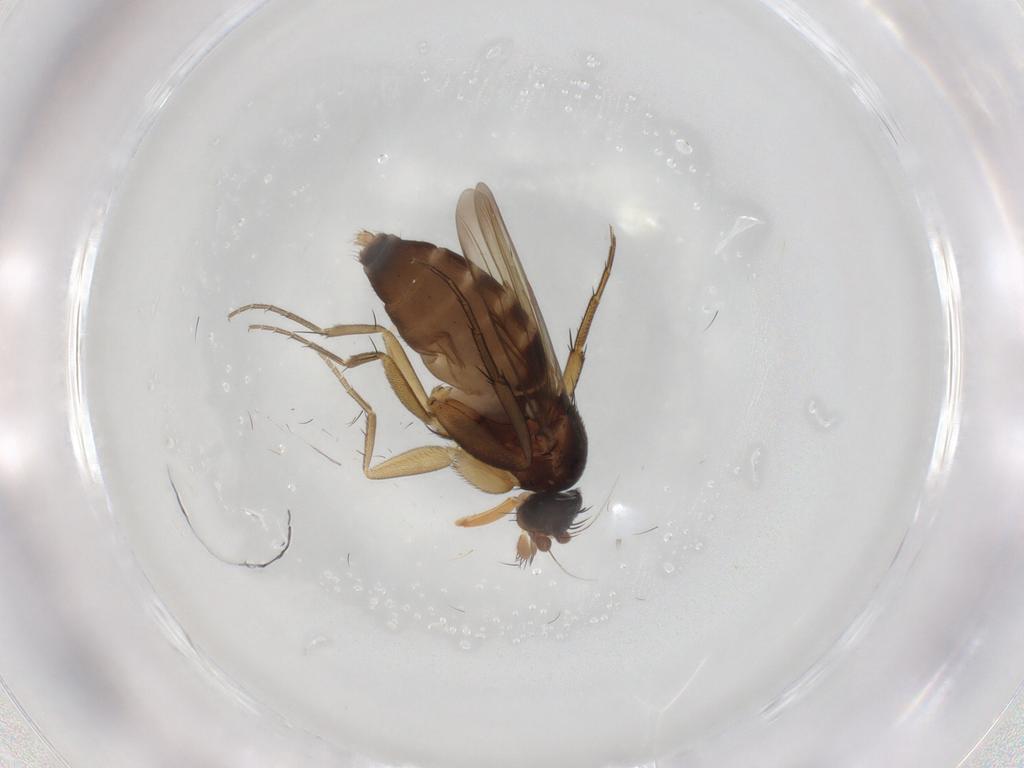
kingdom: Animalia
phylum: Arthropoda
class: Insecta
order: Diptera
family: Phoridae
